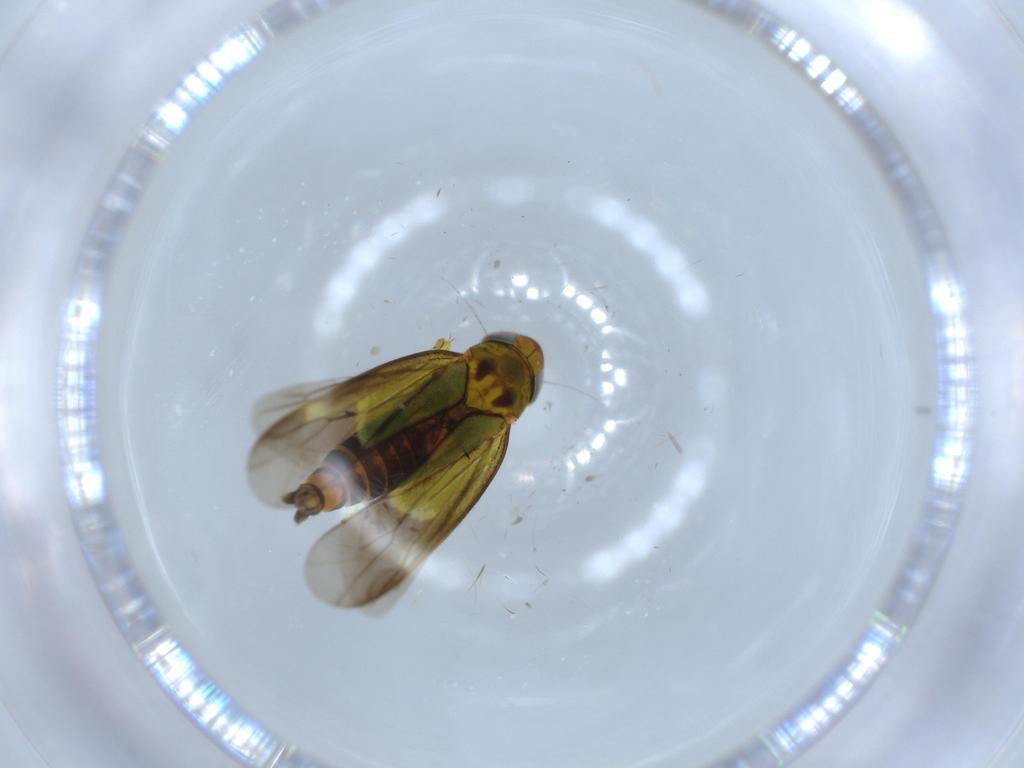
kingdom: Animalia
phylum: Arthropoda
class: Insecta
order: Hemiptera
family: Cicadellidae
